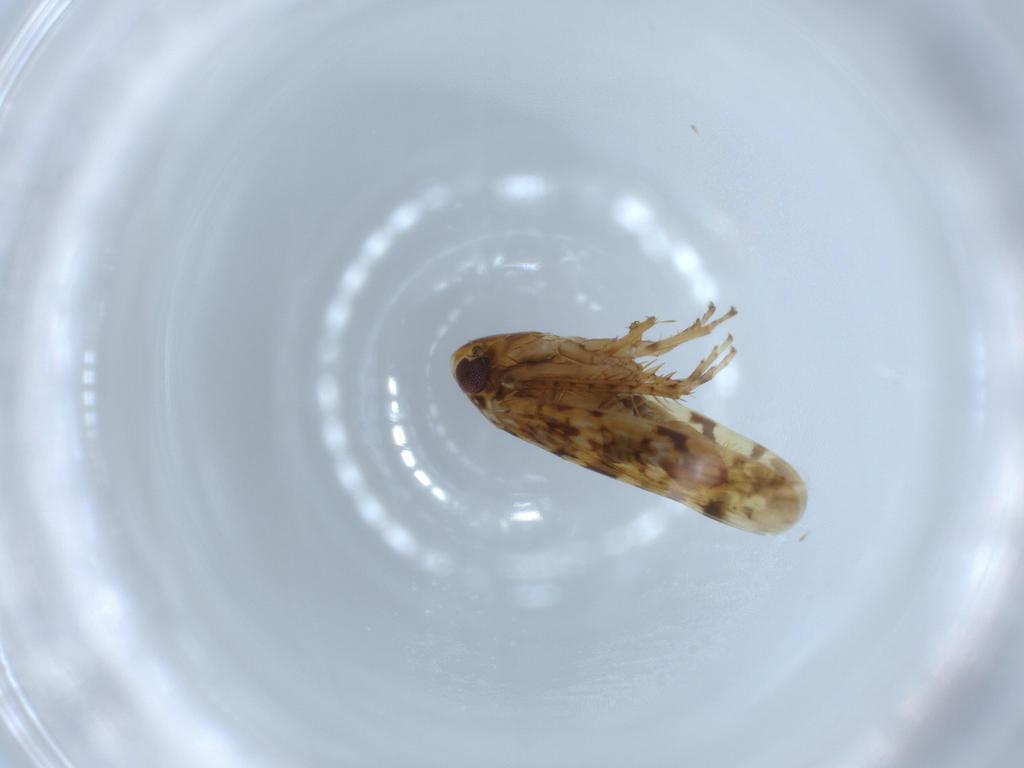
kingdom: Animalia
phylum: Arthropoda
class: Insecta
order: Hemiptera
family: Cicadellidae
